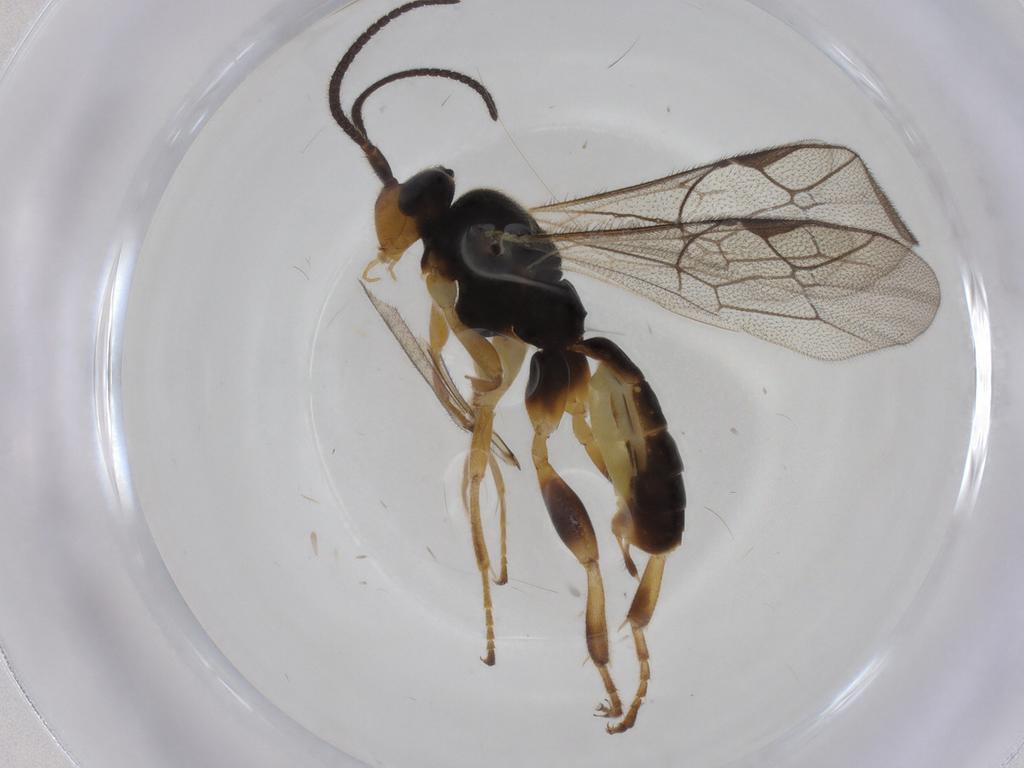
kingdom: Animalia
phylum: Arthropoda
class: Insecta
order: Hymenoptera
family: Ichneumonidae
